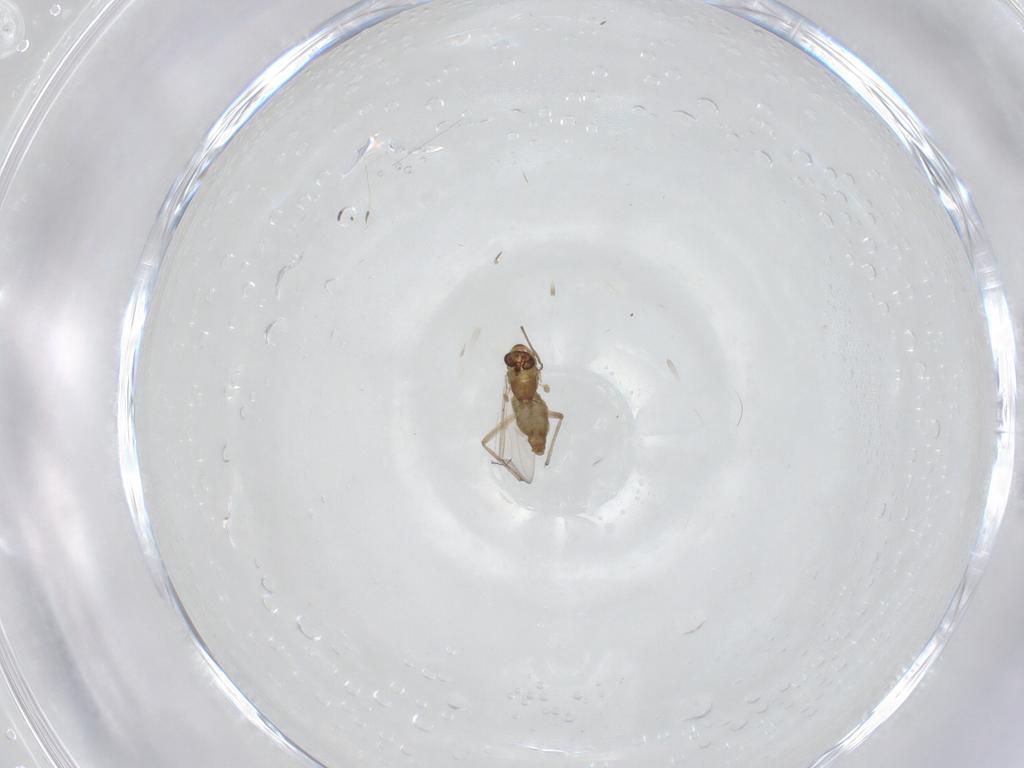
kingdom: Animalia
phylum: Arthropoda
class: Insecta
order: Diptera
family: Chironomidae
